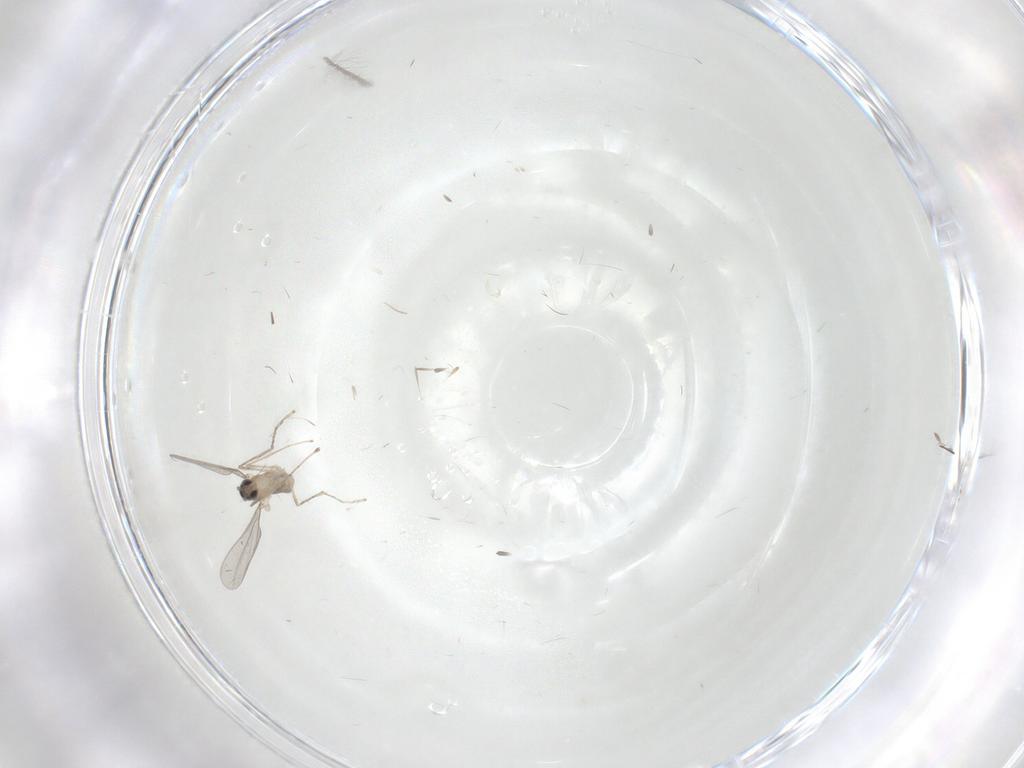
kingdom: Animalia
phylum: Arthropoda
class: Insecta
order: Diptera
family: Cecidomyiidae
